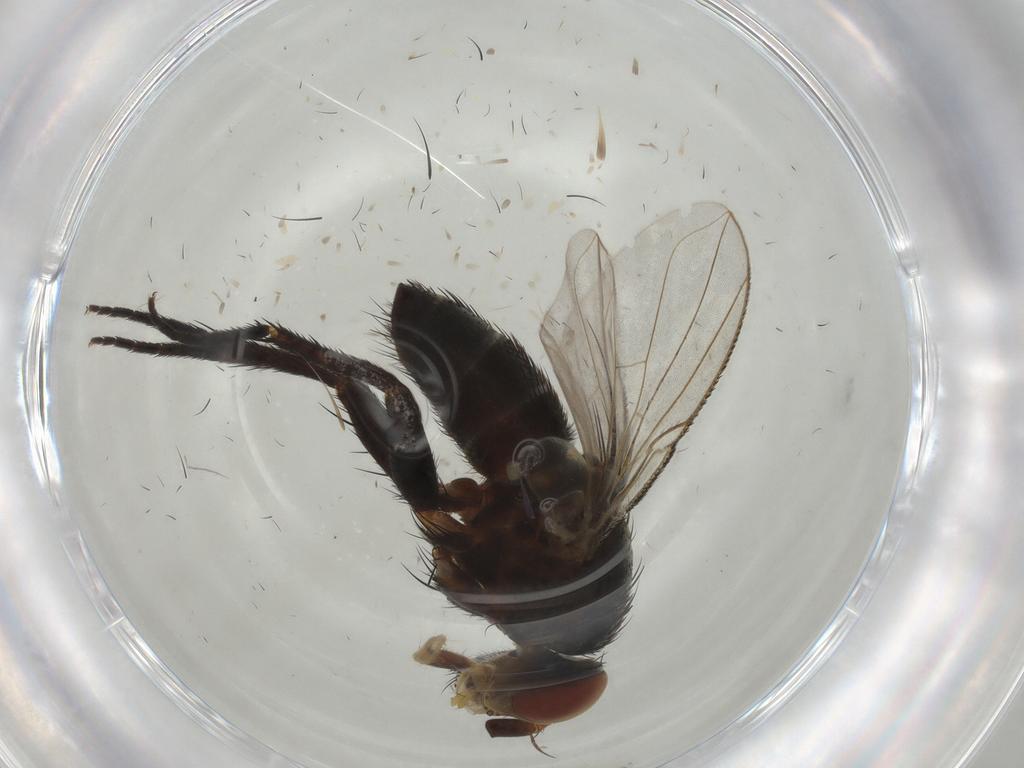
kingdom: Animalia
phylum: Arthropoda
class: Insecta
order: Diptera
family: Tachinidae
